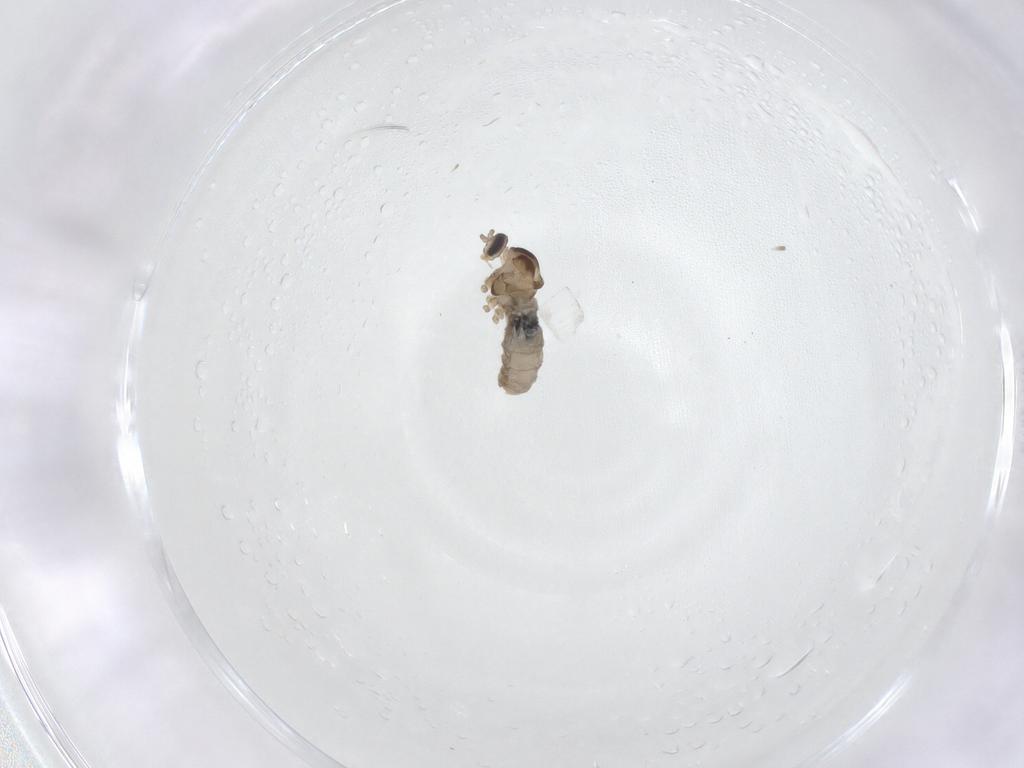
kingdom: Animalia
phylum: Arthropoda
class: Insecta
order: Diptera
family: Cecidomyiidae
